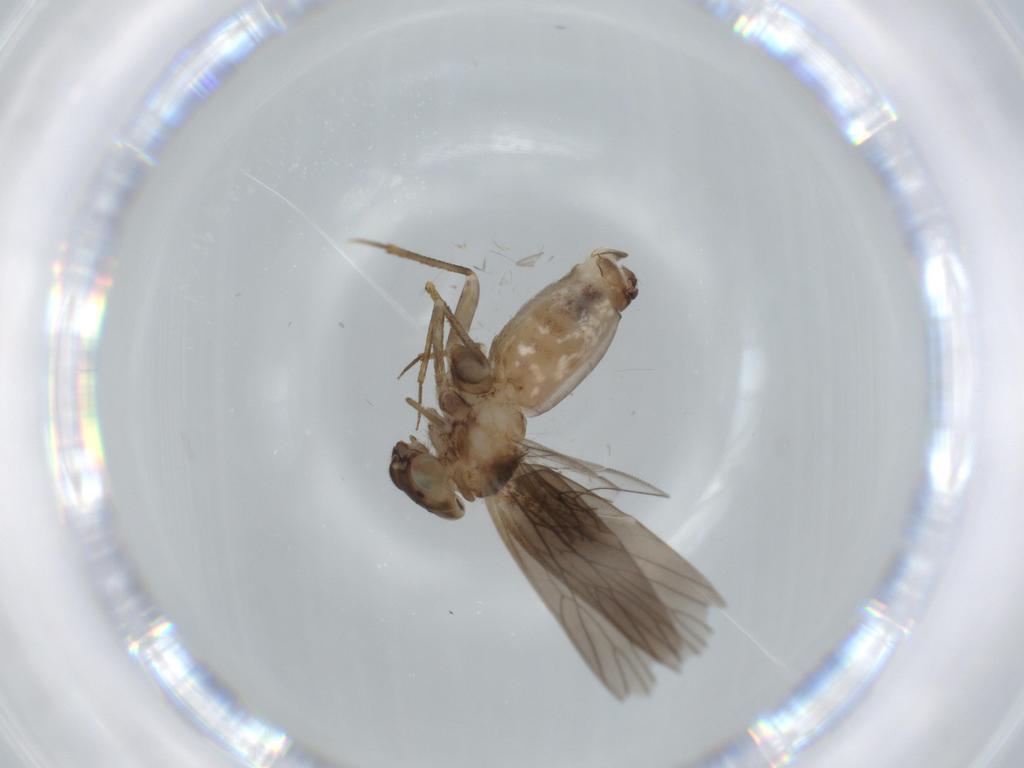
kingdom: Animalia
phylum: Arthropoda
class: Insecta
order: Psocodea
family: Lepidopsocidae
